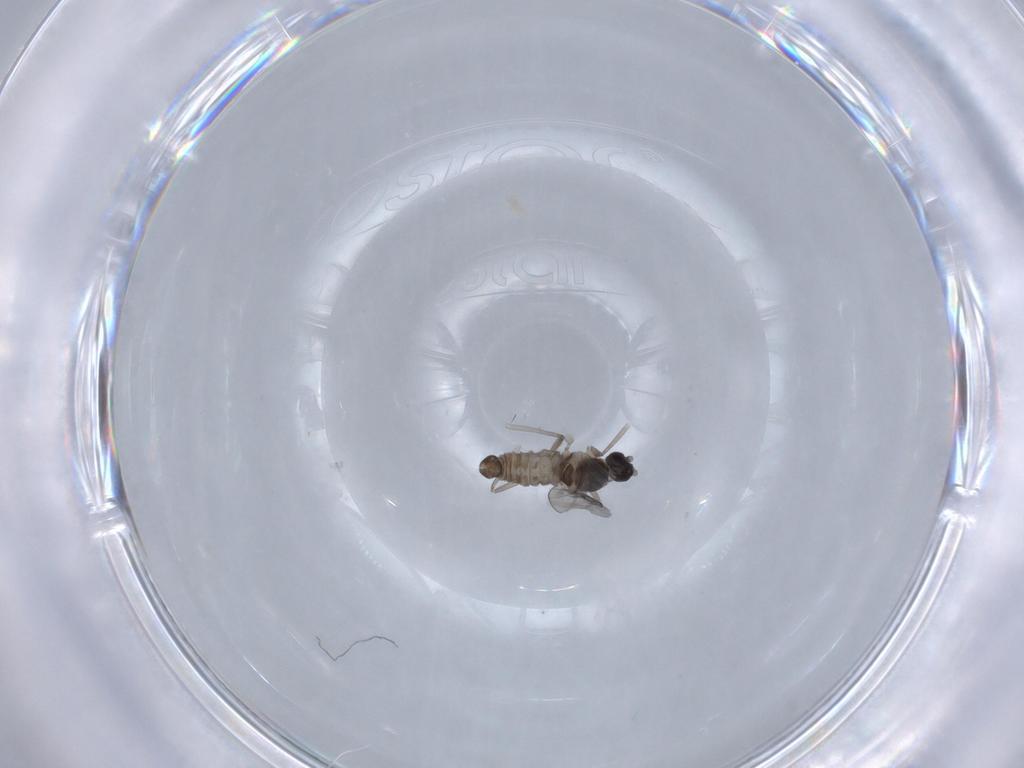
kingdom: Animalia
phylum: Arthropoda
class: Insecta
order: Diptera
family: Cecidomyiidae
